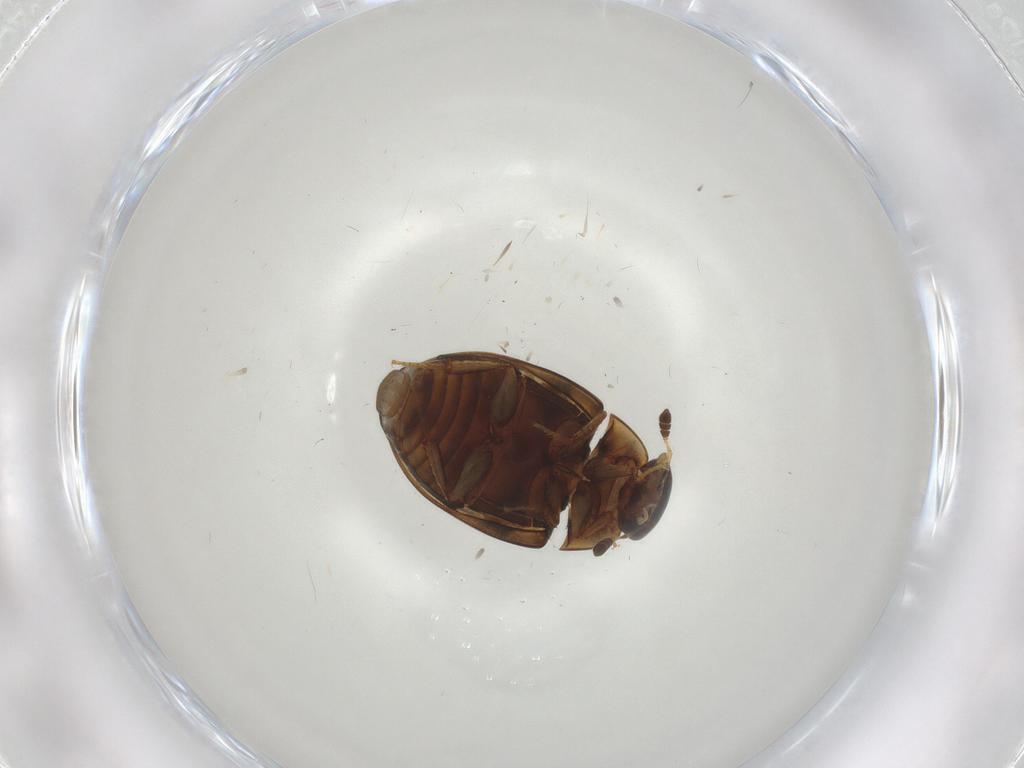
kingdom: Animalia
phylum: Arthropoda
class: Insecta
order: Coleoptera
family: Hydrophilidae
